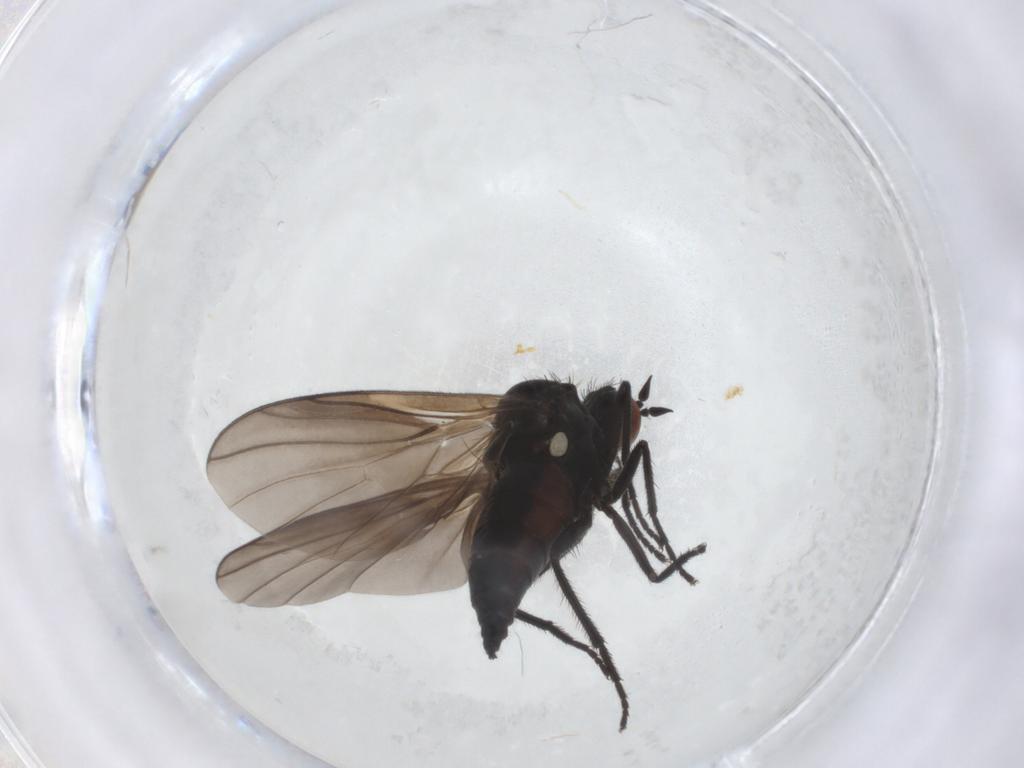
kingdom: Animalia
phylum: Arthropoda
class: Insecta
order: Diptera
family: Empididae
